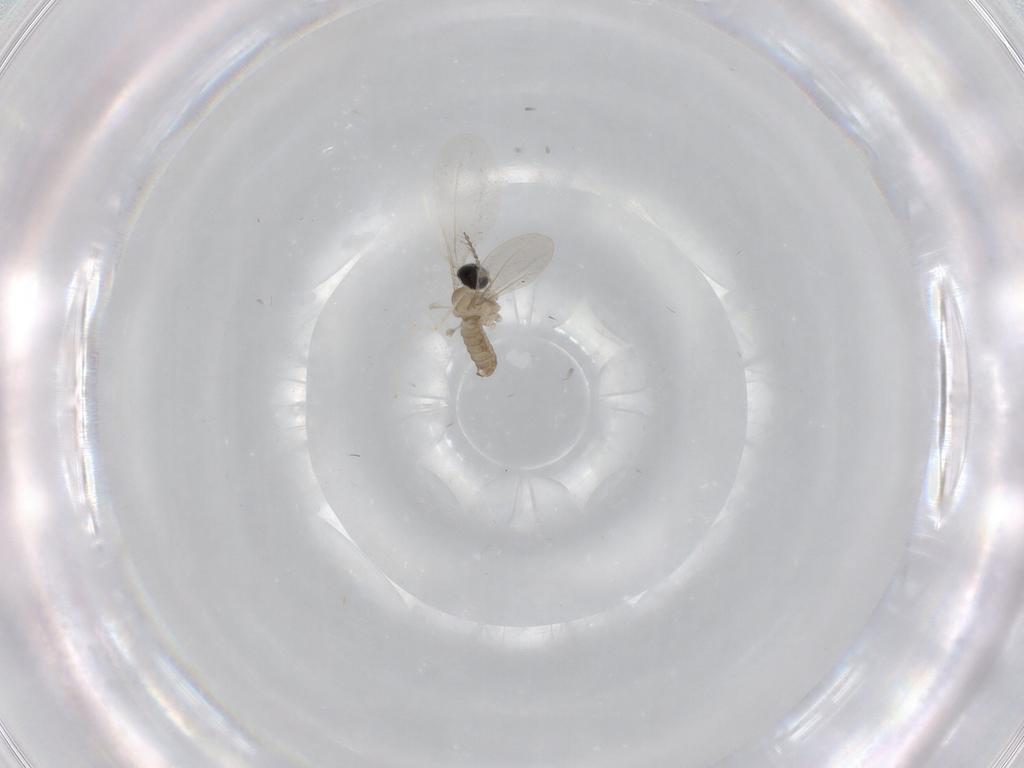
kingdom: Animalia
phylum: Arthropoda
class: Insecta
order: Diptera
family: Cecidomyiidae
